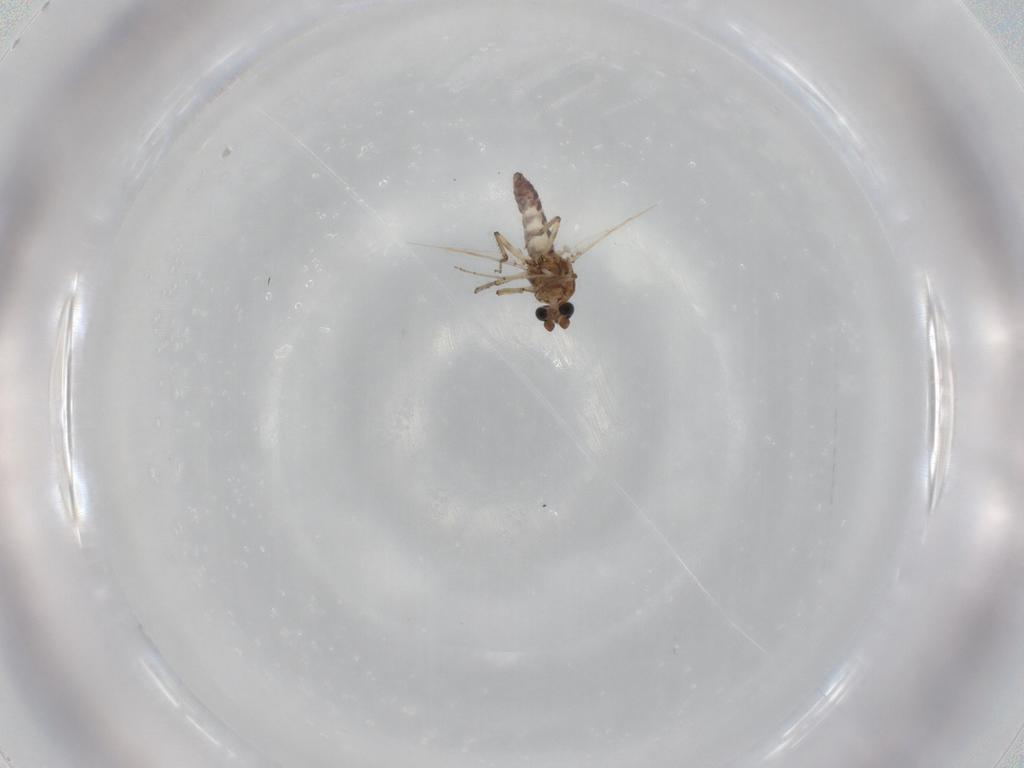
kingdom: Animalia
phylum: Arthropoda
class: Insecta
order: Diptera
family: Ceratopogonidae
